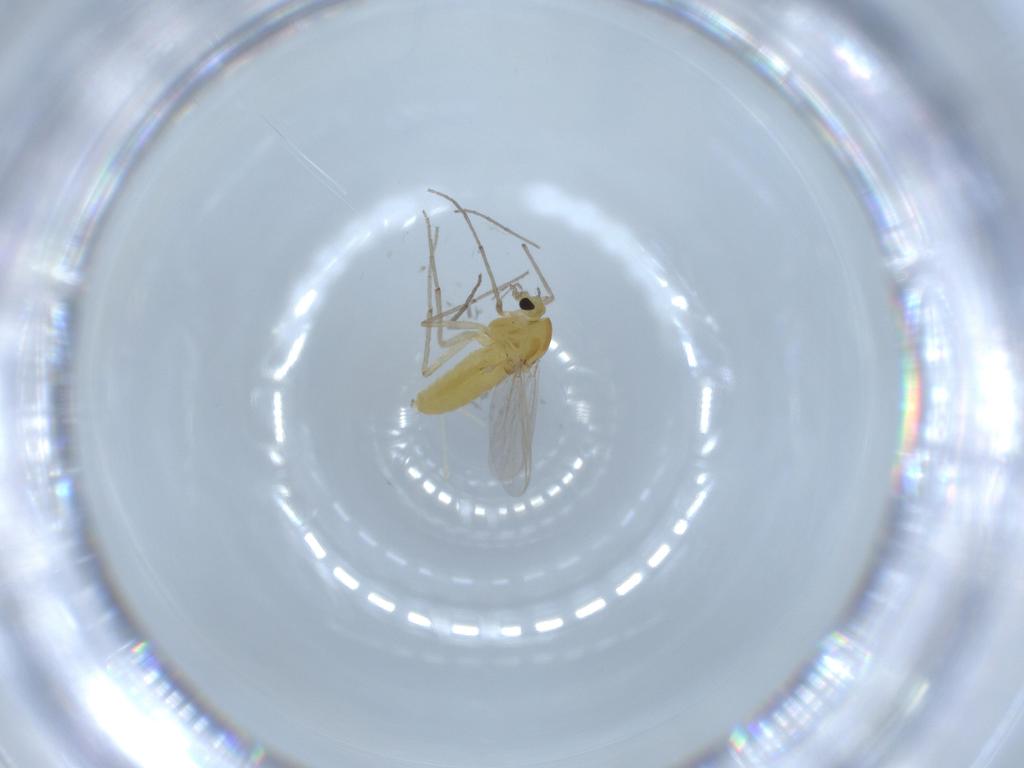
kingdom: Animalia
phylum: Arthropoda
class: Insecta
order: Diptera
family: Chironomidae
